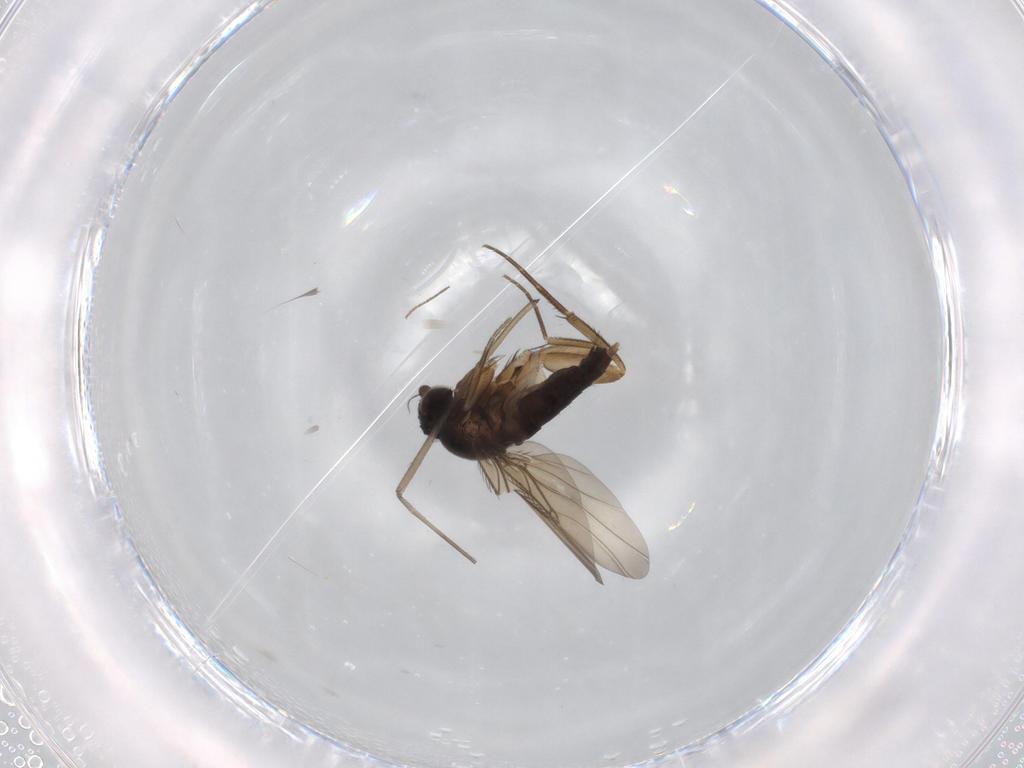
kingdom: Animalia
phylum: Arthropoda
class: Insecta
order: Diptera
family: Phoridae
